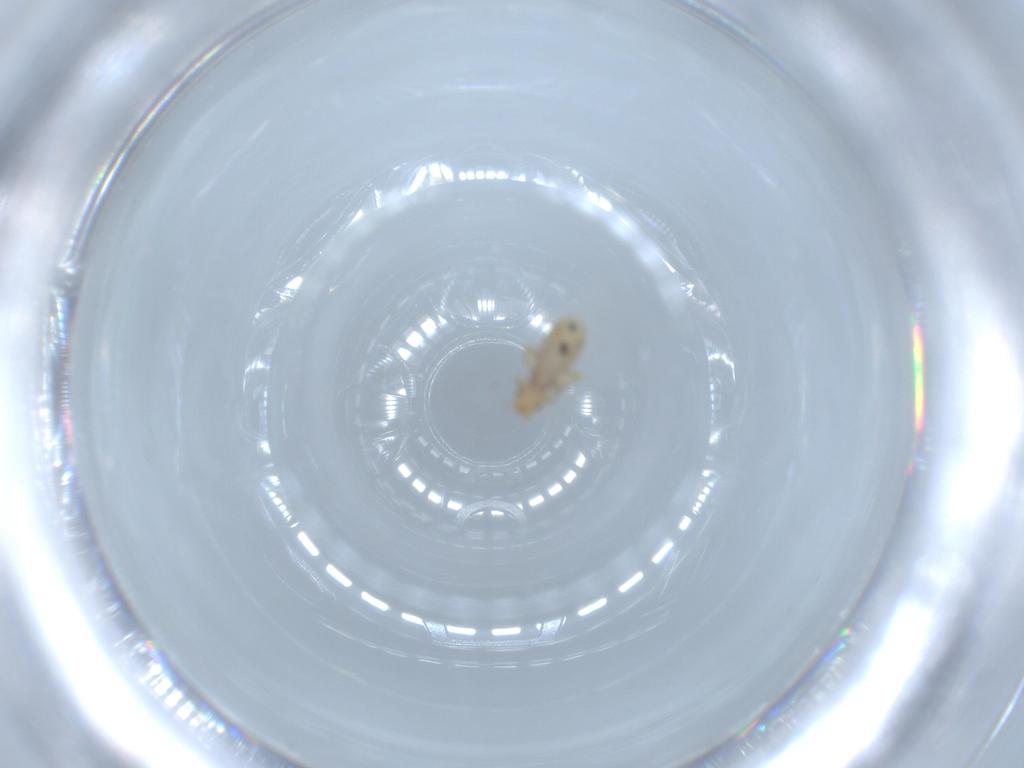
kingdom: Animalia
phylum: Arthropoda
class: Insecta
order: Psocodea
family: Liposcelididae
